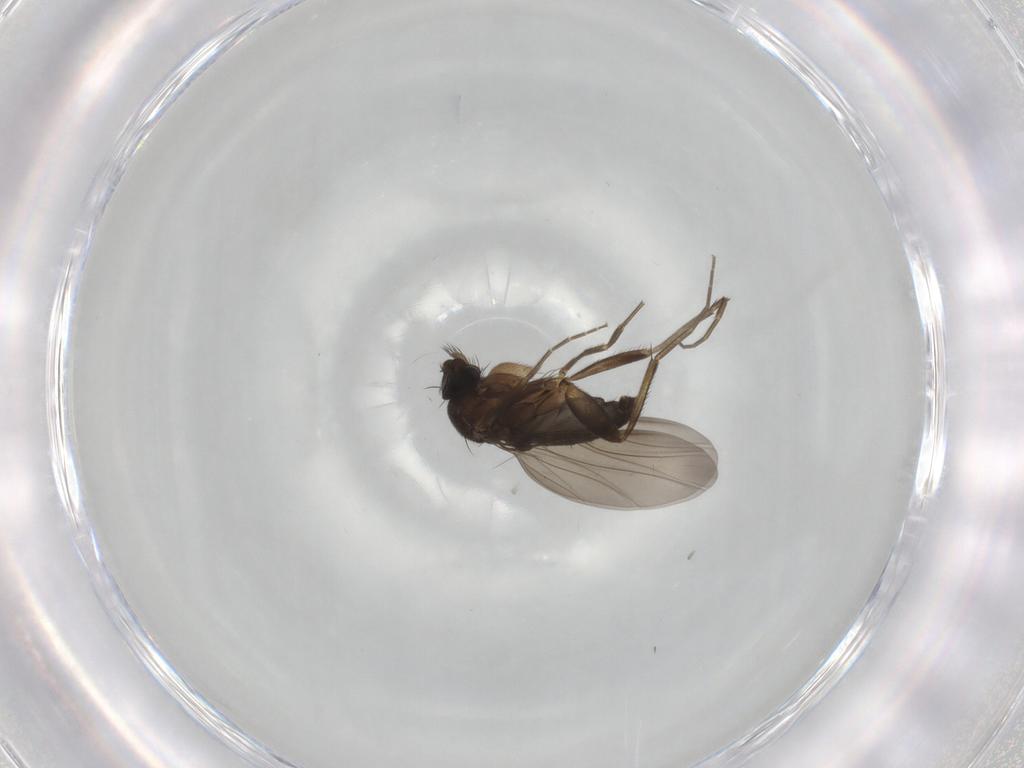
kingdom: Animalia
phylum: Arthropoda
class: Insecta
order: Diptera
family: Phoridae
